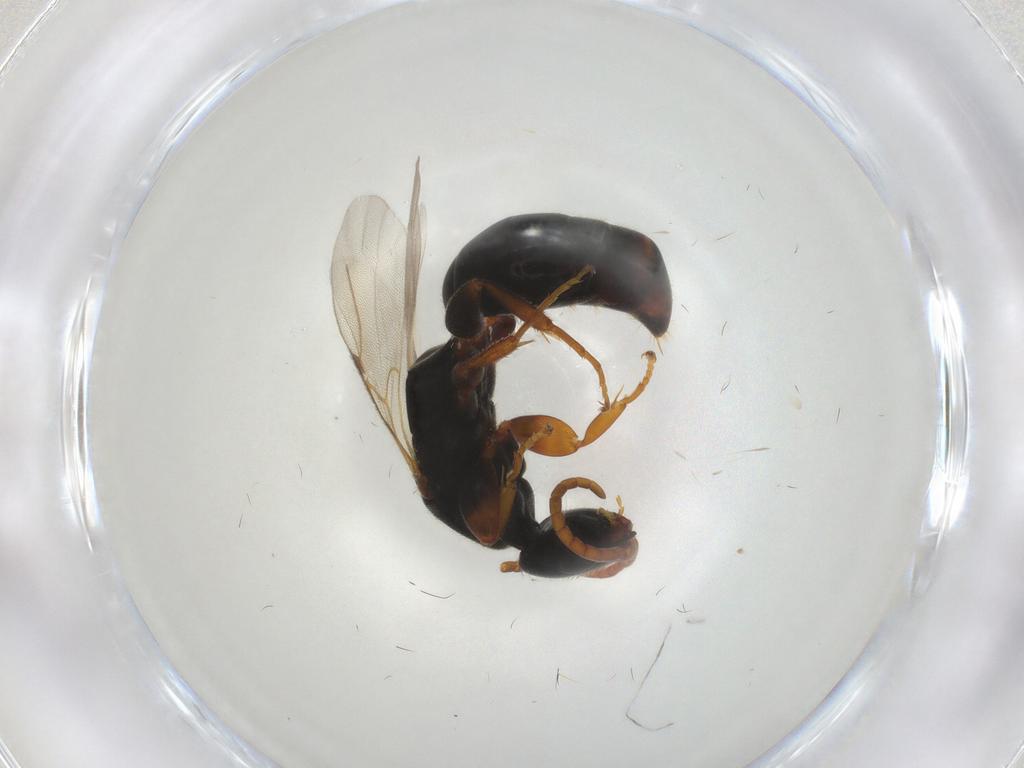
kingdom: Animalia
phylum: Arthropoda
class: Insecta
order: Hymenoptera
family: Bethylidae
